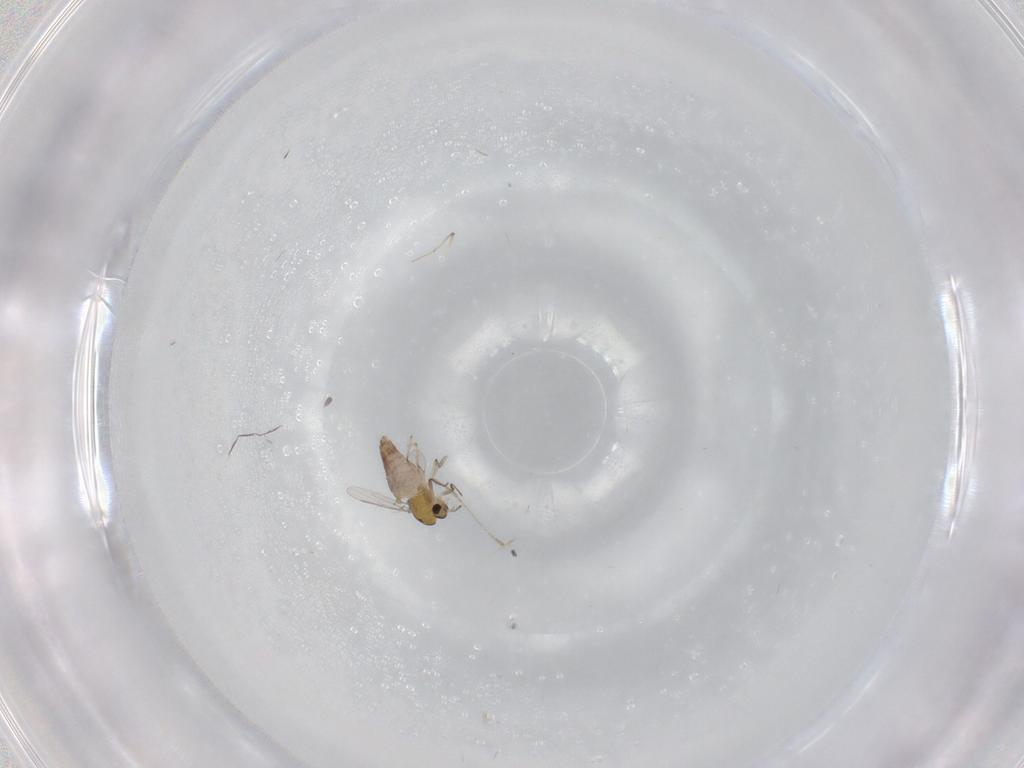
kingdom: Animalia
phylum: Arthropoda
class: Insecta
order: Diptera
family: Chironomidae
